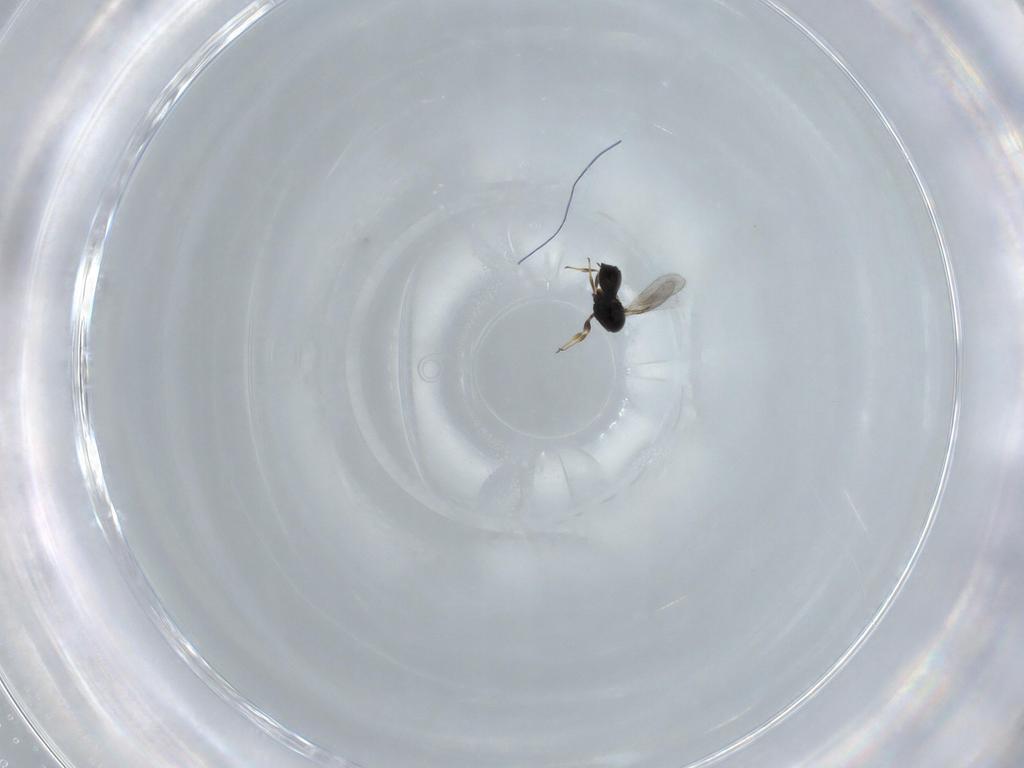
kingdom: Animalia
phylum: Arthropoda
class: Insecta
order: Hymenoptera
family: Scelionidae
